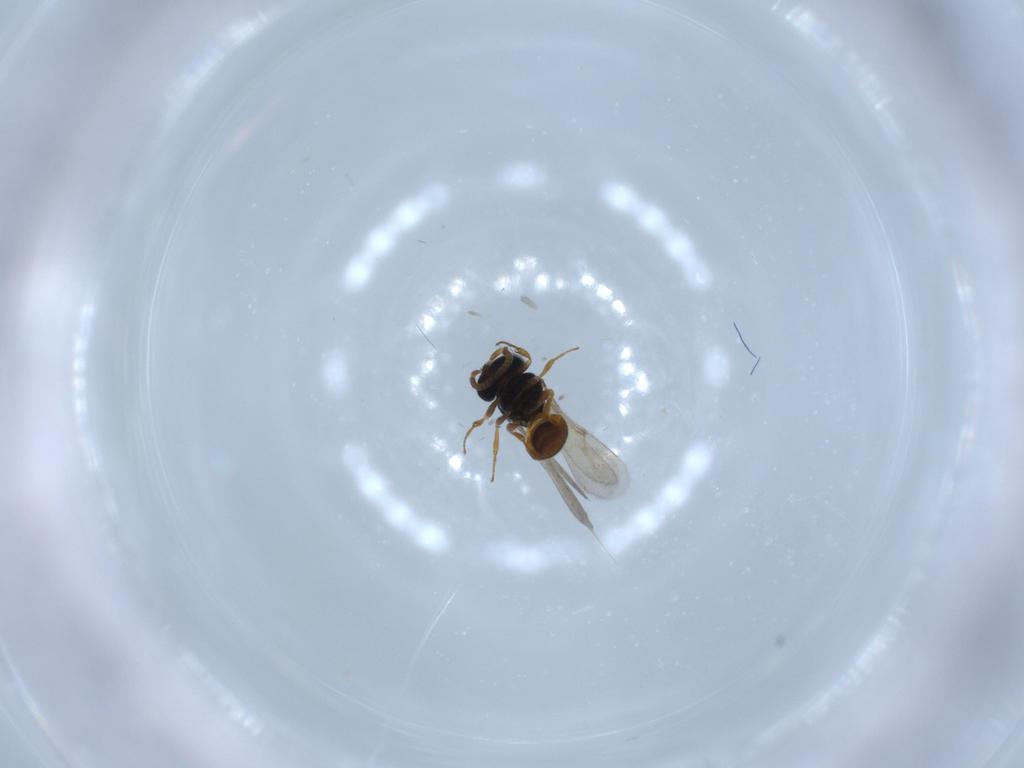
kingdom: Animalia
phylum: Arthropoda
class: Insecta
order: Hymenoptera
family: Scelionidae
